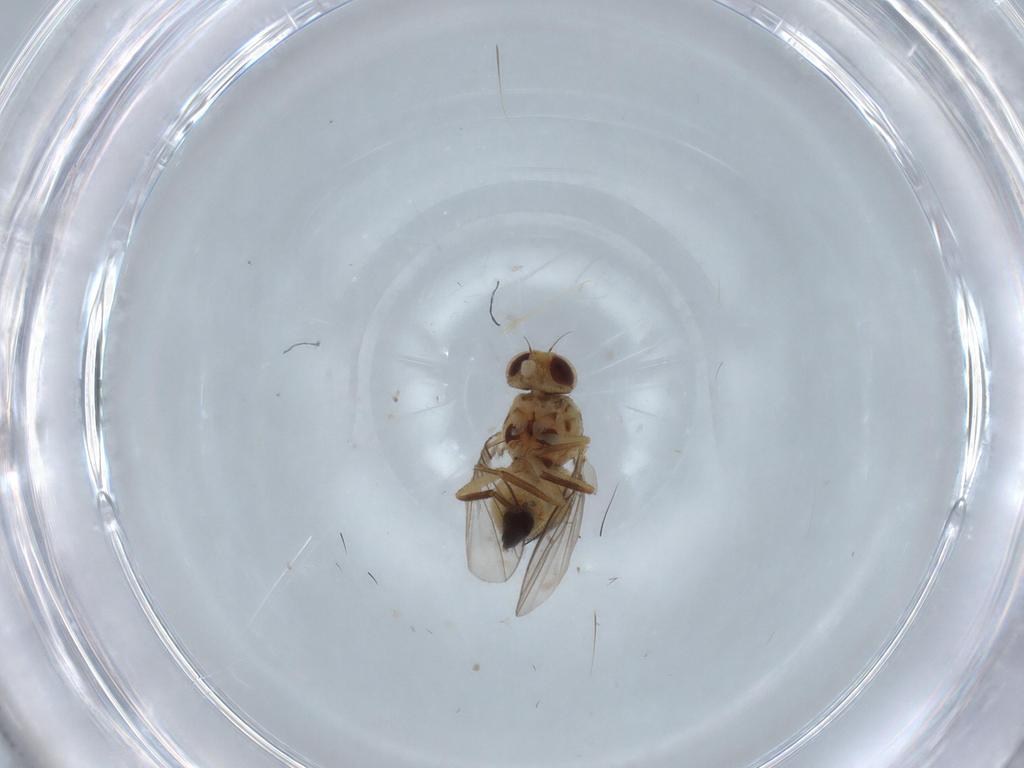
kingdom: Animalia
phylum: Arthropoda
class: Insecta
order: Diptera
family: Agromyzidae
